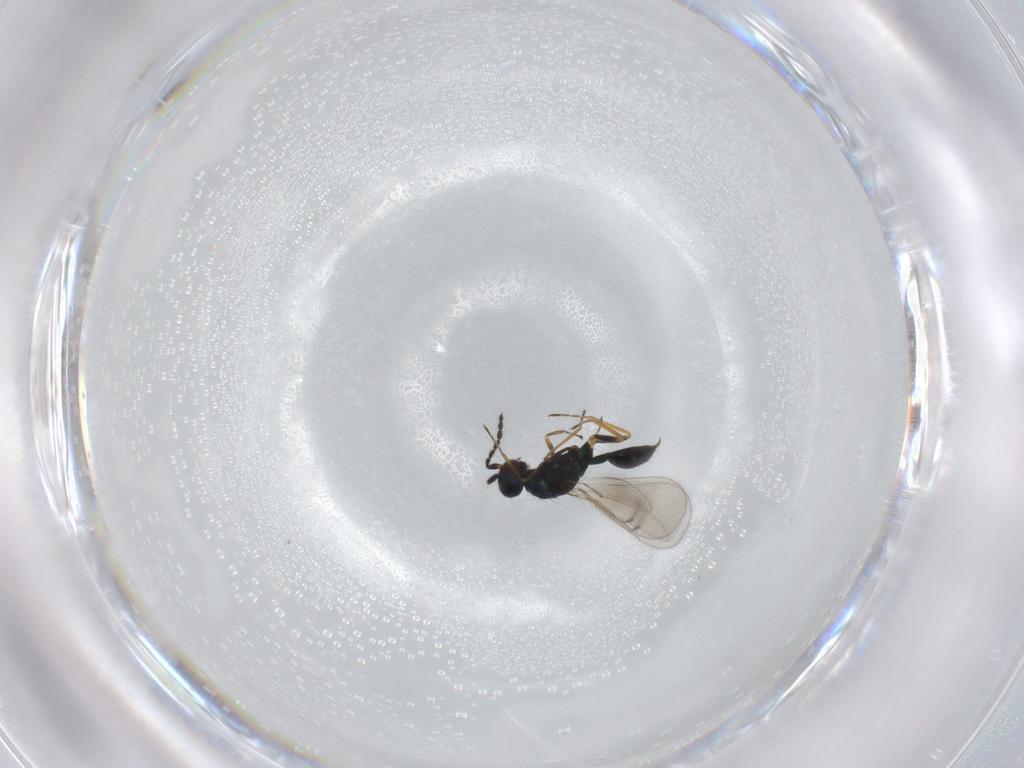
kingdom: Animalia
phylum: Arthropoda
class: Insecta
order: Hymenoptera
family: Eulophidae
